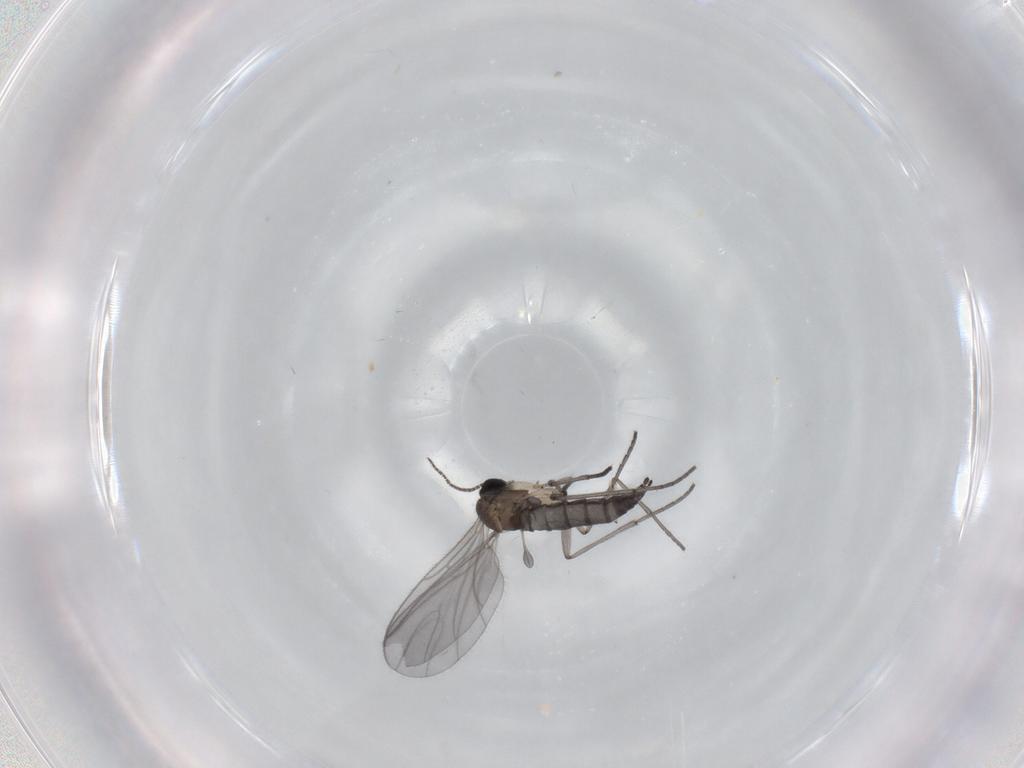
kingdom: Animalia
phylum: Arthropoda
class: Insecta
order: Diptera
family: Sciaridae
